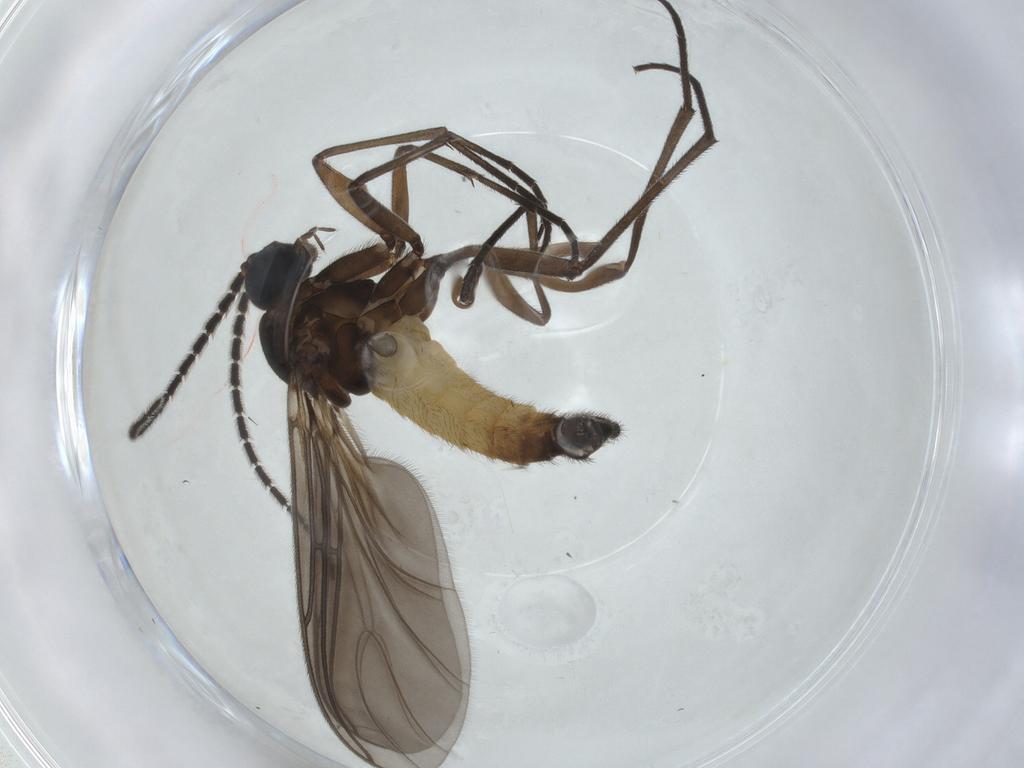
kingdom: Animalia
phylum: Arthropoda
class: Insecta
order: Diptera
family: Sciaridae
